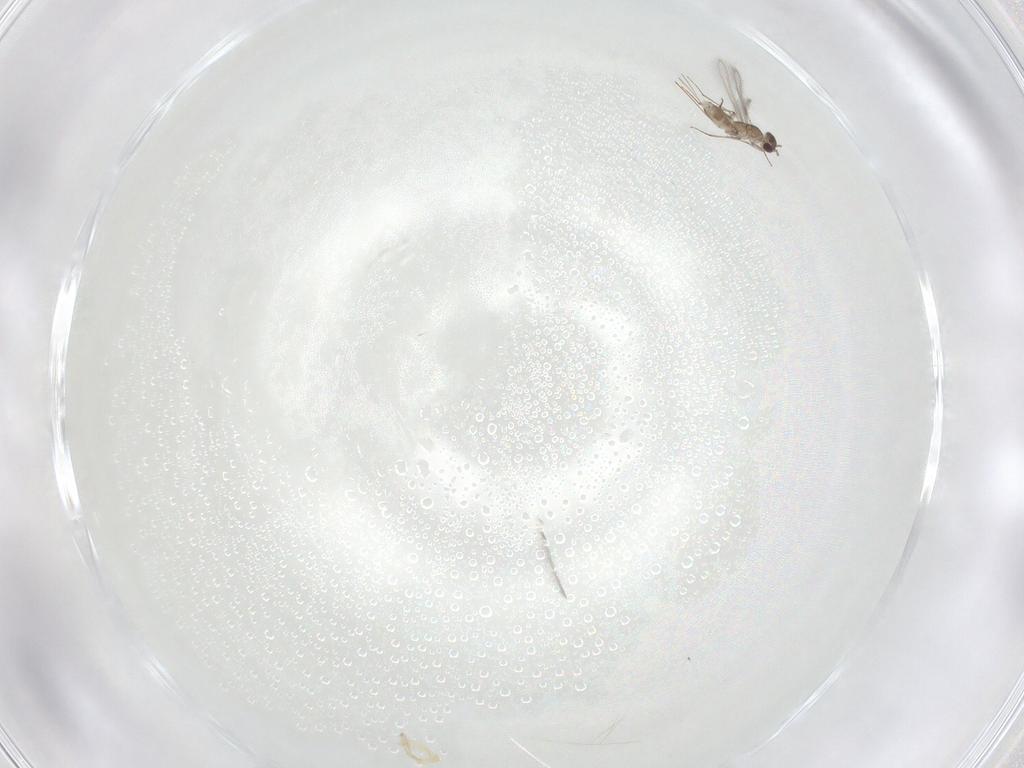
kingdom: Animalia
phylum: Arthropoda
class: Insecta
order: Hymenoptera
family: Mymaridae
